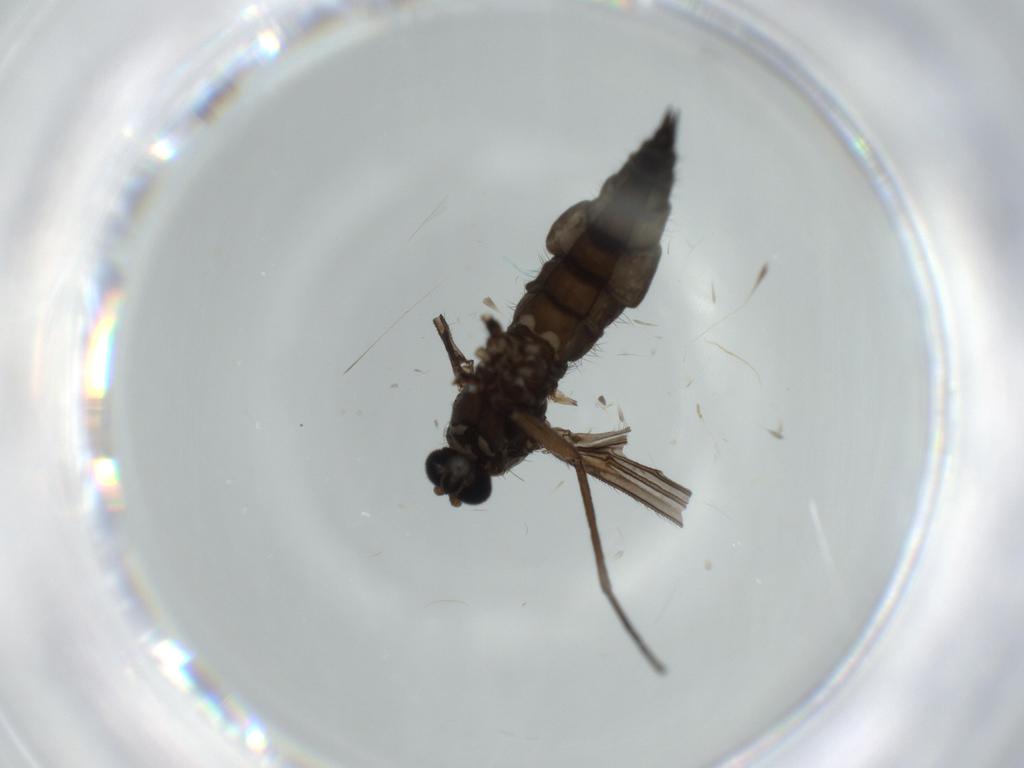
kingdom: Animalia
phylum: Arthropoda
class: Insecta
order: Diptera
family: Sciaridae
